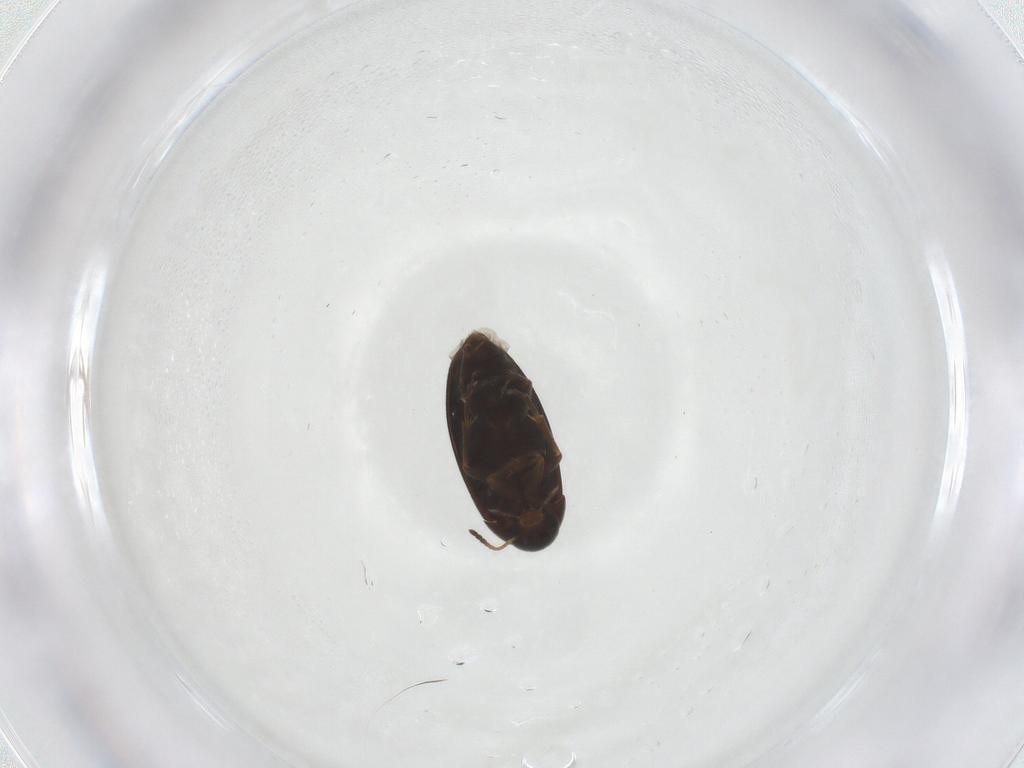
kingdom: Animalia
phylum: Arthropoda
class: Insecta
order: Coleoptera
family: Scraptiidae
